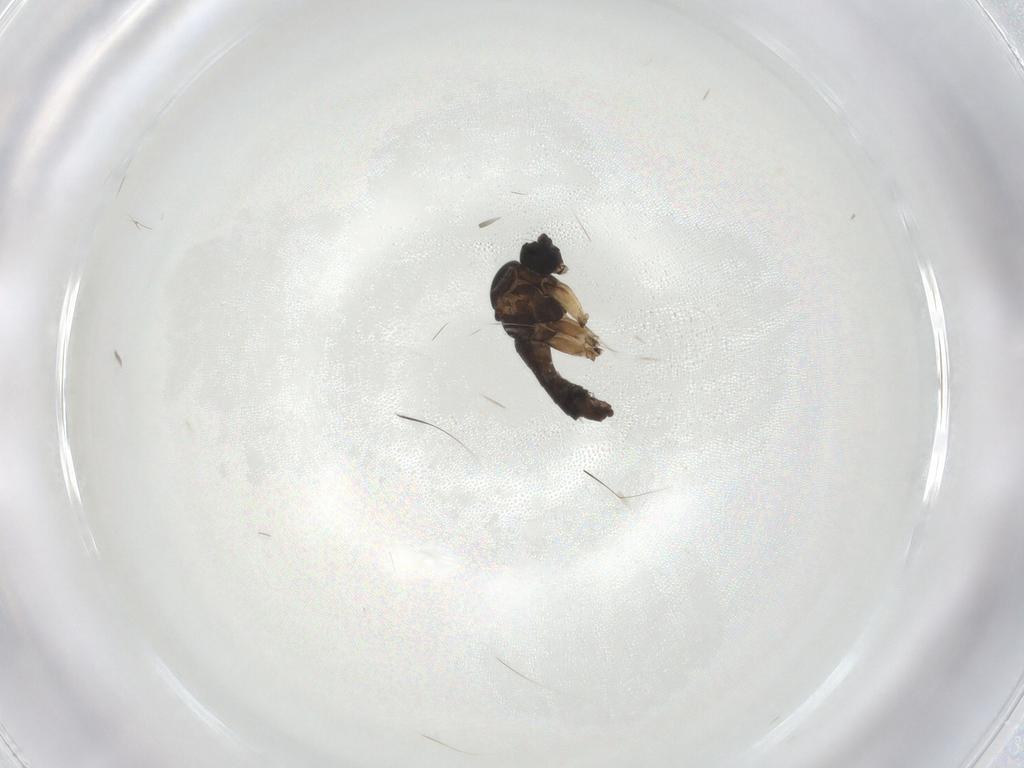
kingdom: Animalia
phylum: Arthropoda
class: Insecta
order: Diptera
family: Sciaridae
